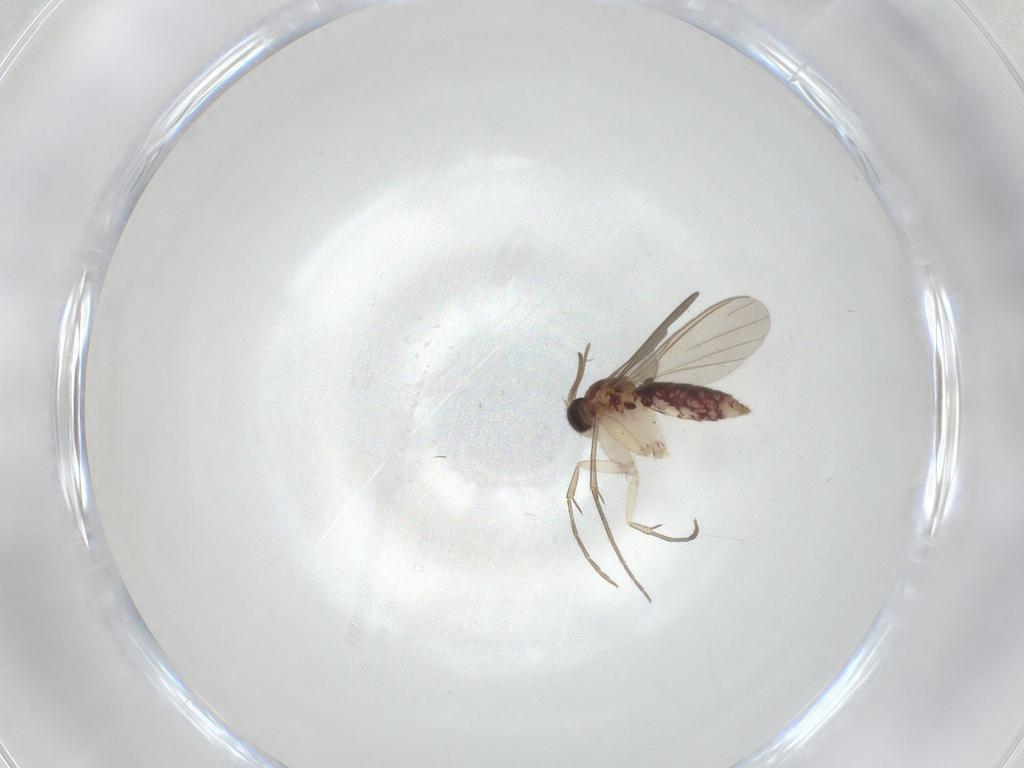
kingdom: Animalia
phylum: Arthropoda
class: Insecta
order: Diptera
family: Mycetophilidae
